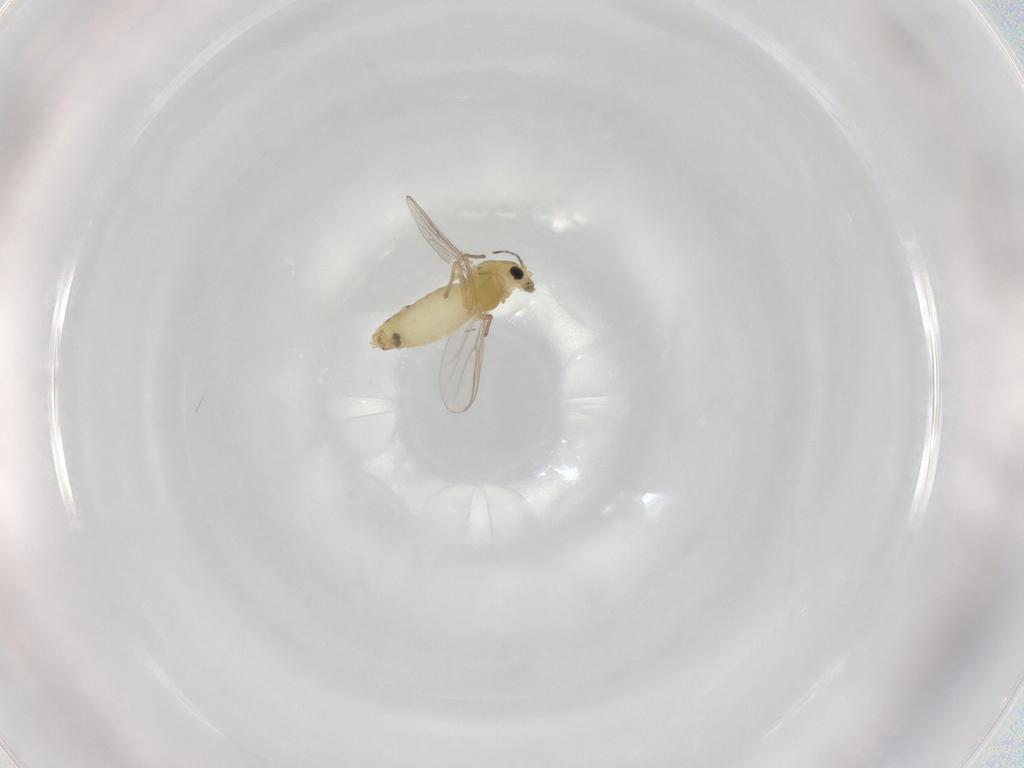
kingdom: Animalia
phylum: Arthropoda
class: Insecta
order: Diptera
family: Cecidomyiidae
